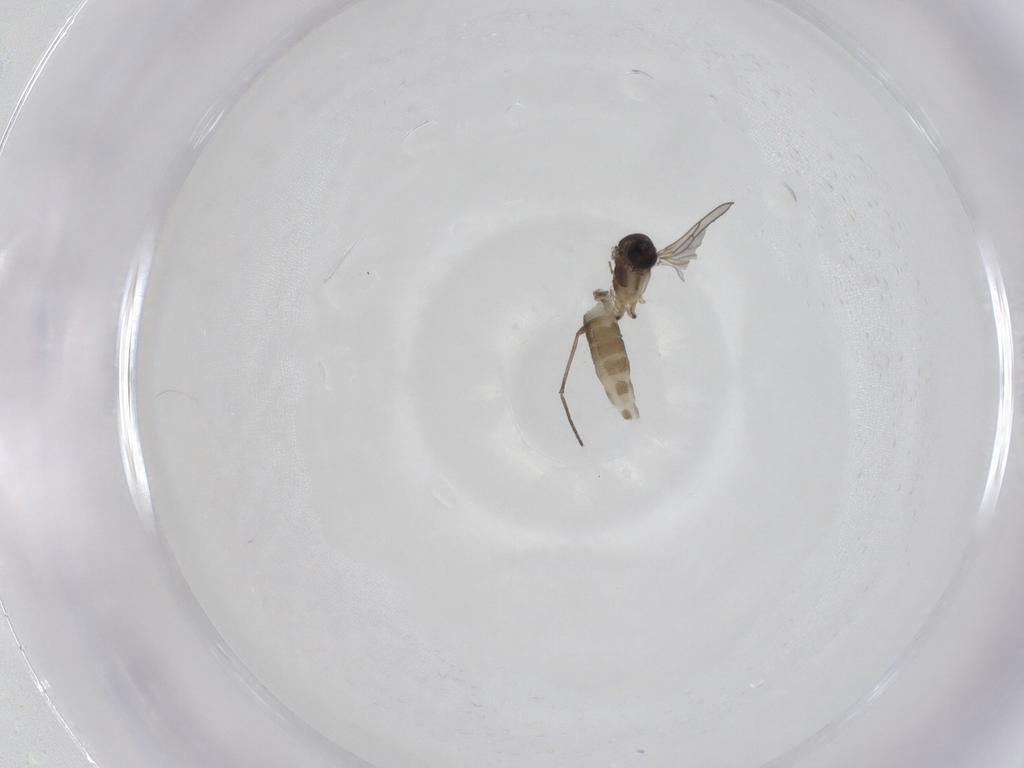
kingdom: Animalia
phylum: Arthropoda
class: Insecta
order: Diptera
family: Sciaridae
